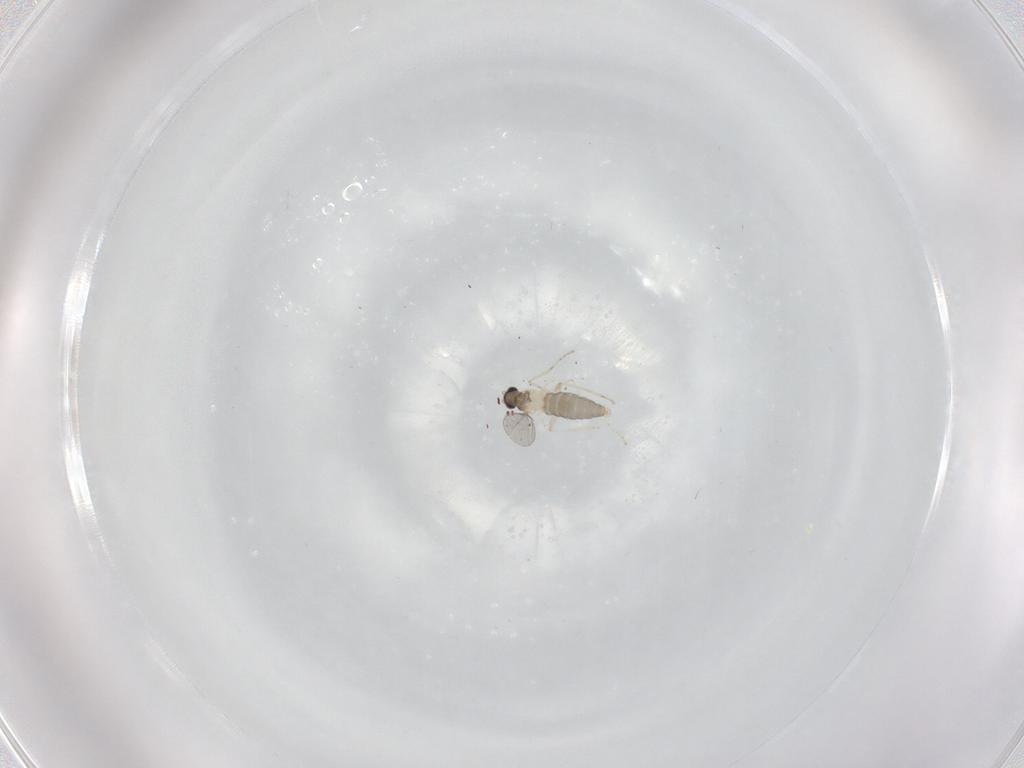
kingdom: Animalia
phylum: Arthropoda
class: Insecta
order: Diptera
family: Cecidomyiidae
